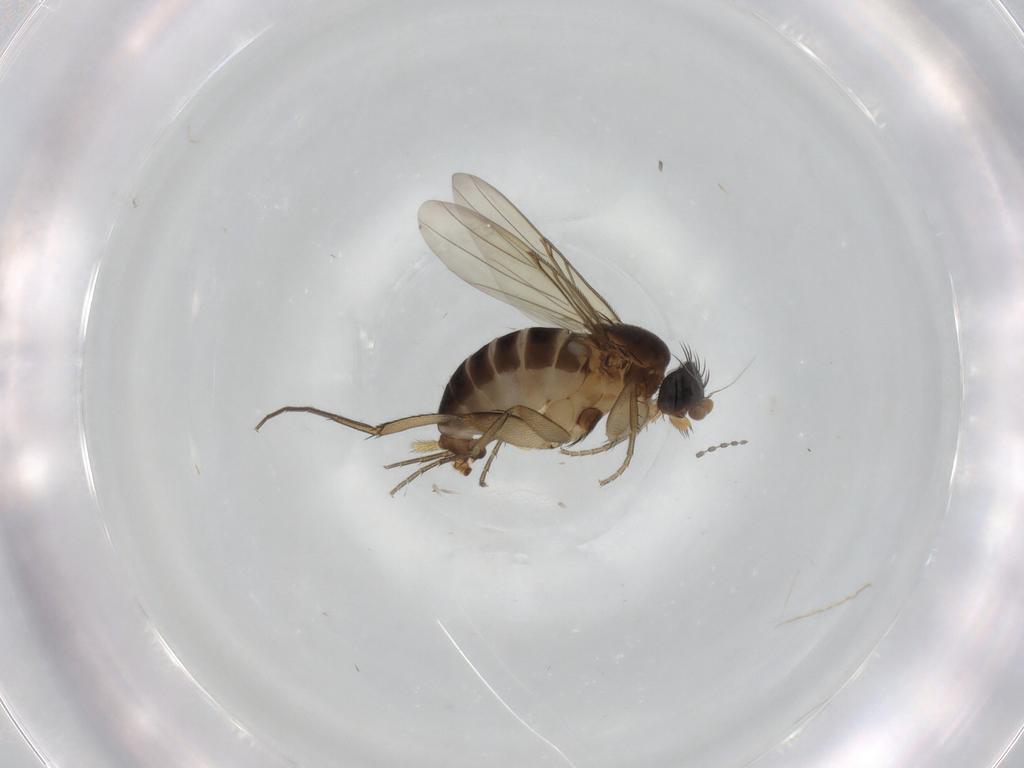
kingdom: Animalia
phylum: Arthropoda
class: Insecta
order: Diptera
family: Phoridae
